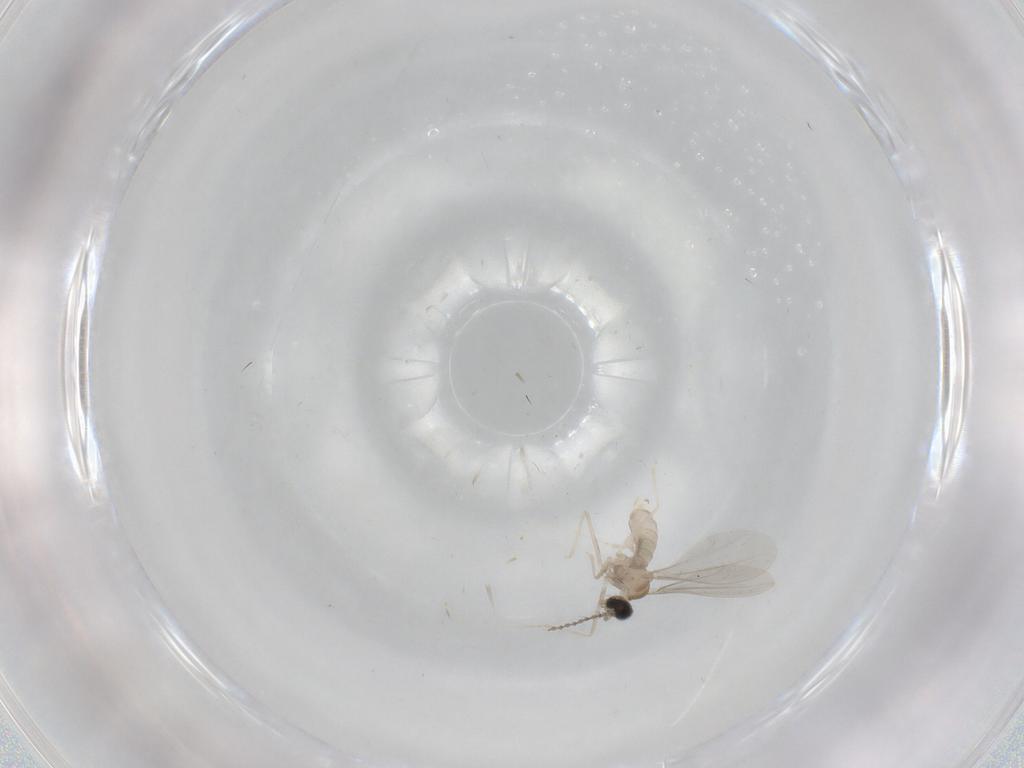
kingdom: Animalia
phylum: Arthropoda
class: Insecta
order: Diptera
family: Cecidomyiidae
